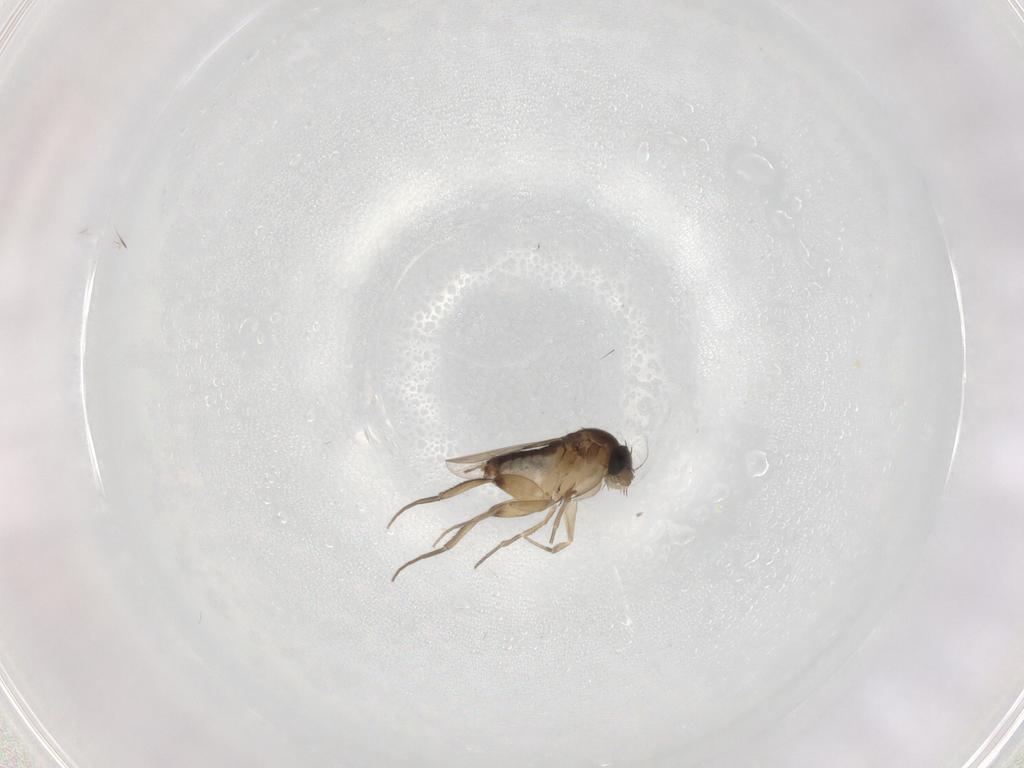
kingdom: Animalia
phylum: Arthropoda
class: Insecta
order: Diptera
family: Phoridae
